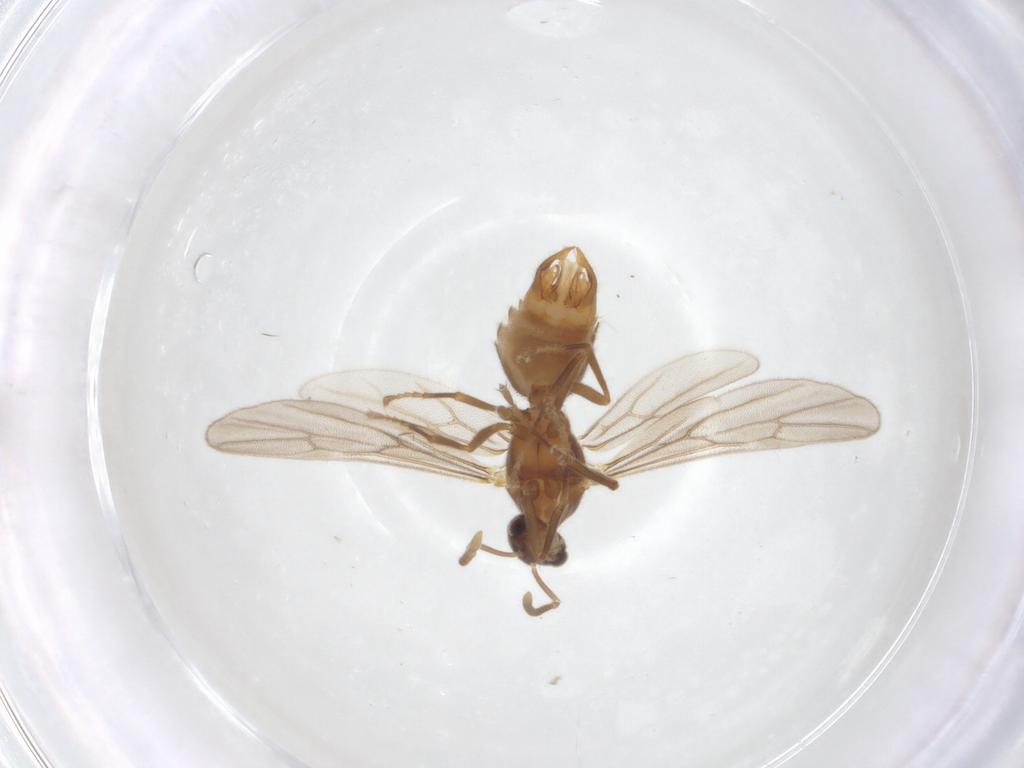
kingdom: Animalia
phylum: Arthropoda
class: Insecta
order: Hymenoptera
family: Formicidae
